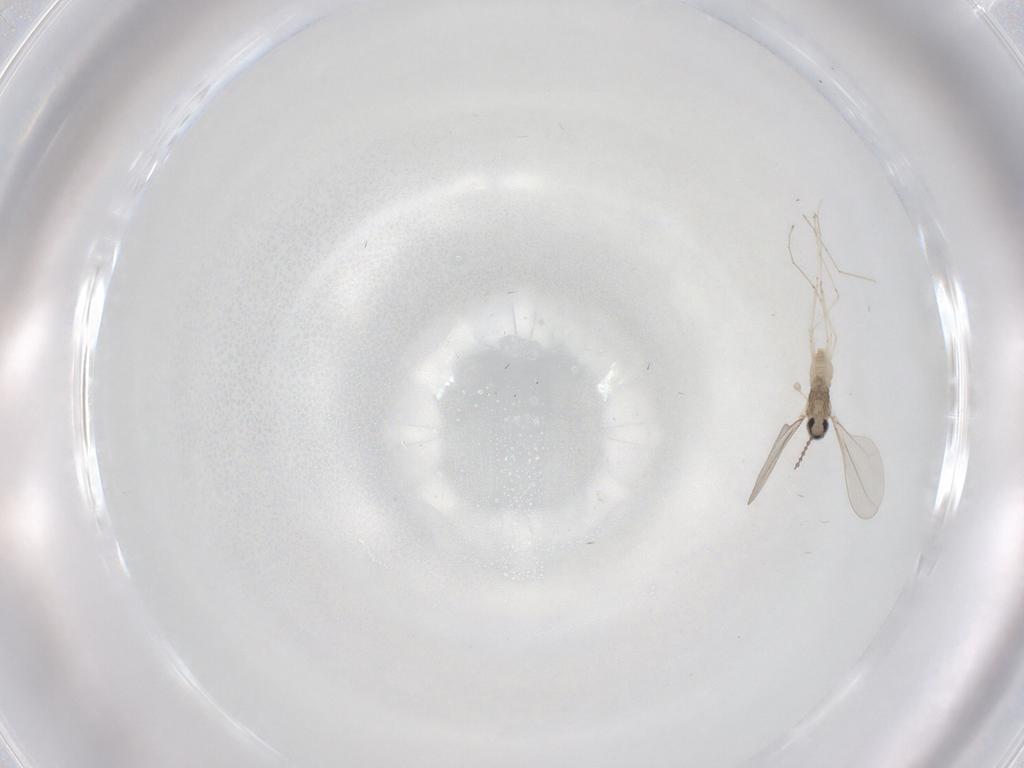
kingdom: Animalia
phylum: Arthropoda
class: Insecta
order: Diptera
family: Cecidomyiidae
